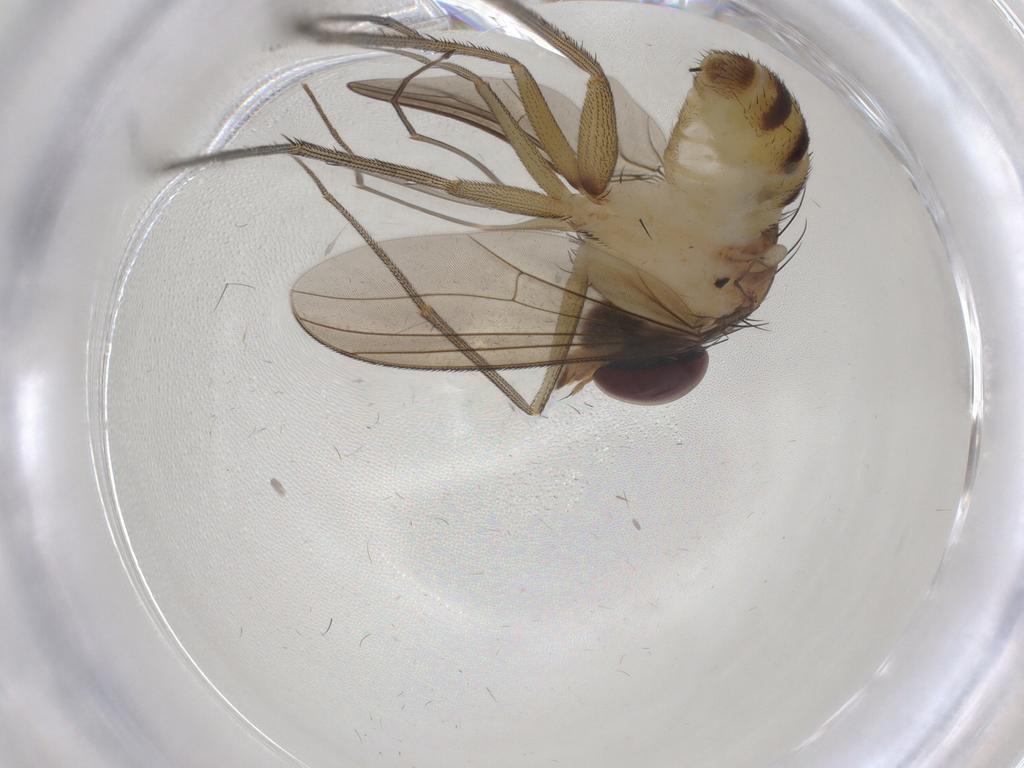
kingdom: Animalia
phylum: Arthropoda
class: Insecta
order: Diptera
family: Dolichopodidae
